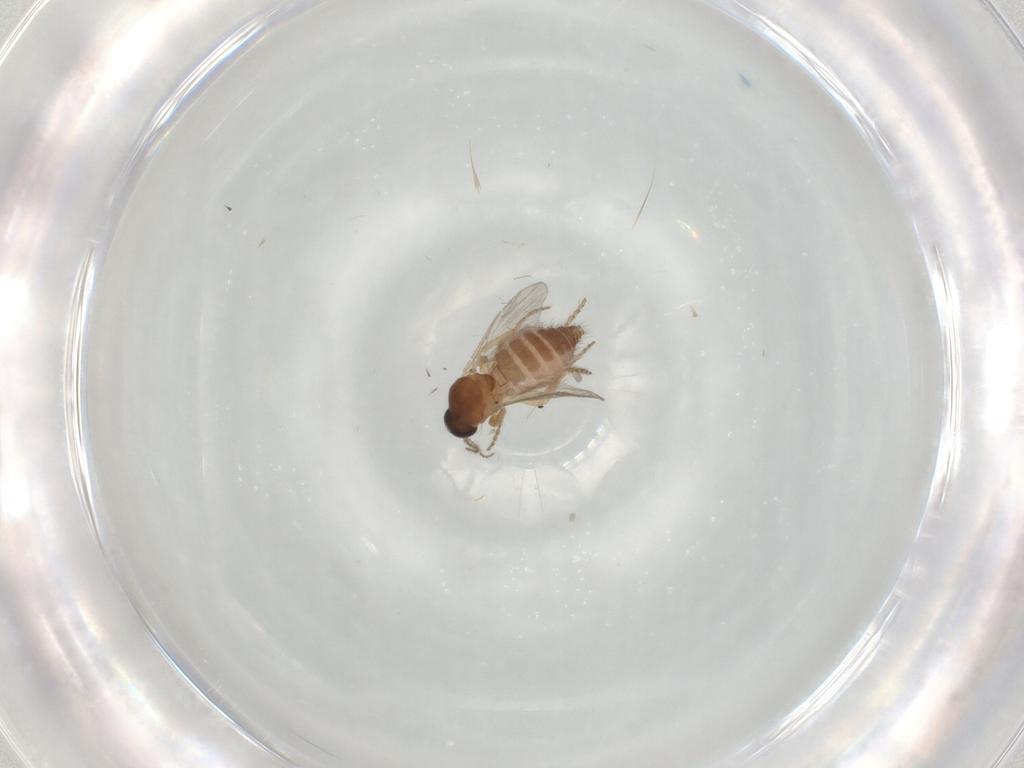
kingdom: Animalia
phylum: Arthropoda
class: Insecta
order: Diptera
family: Ceratopogonidae
